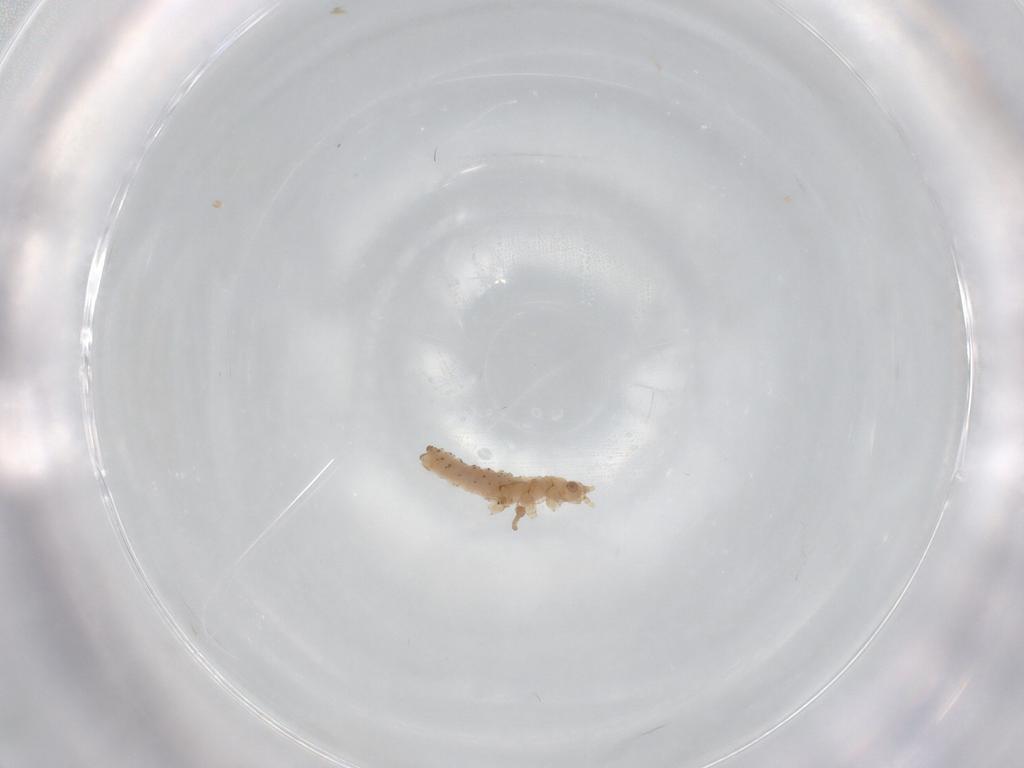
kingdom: Animalia
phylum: Arthropoda
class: Insecta
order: Hemiptera
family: Aphididae
